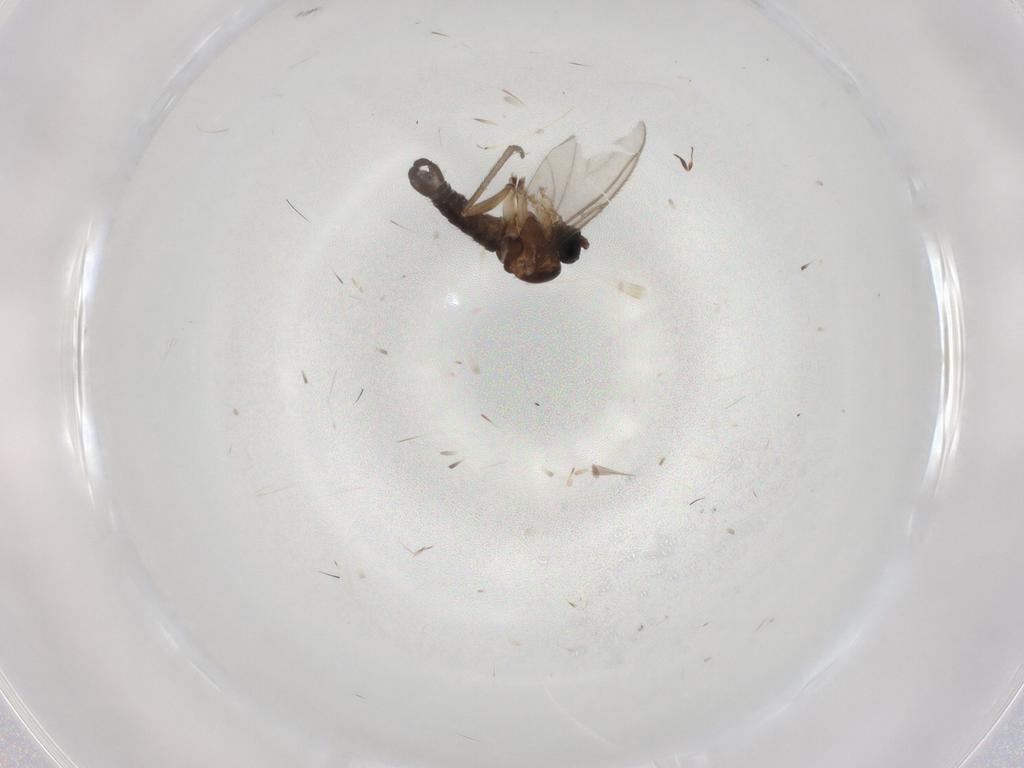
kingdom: Animalia
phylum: Arthropoda
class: Insecta
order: Diptera
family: Sciaridae
